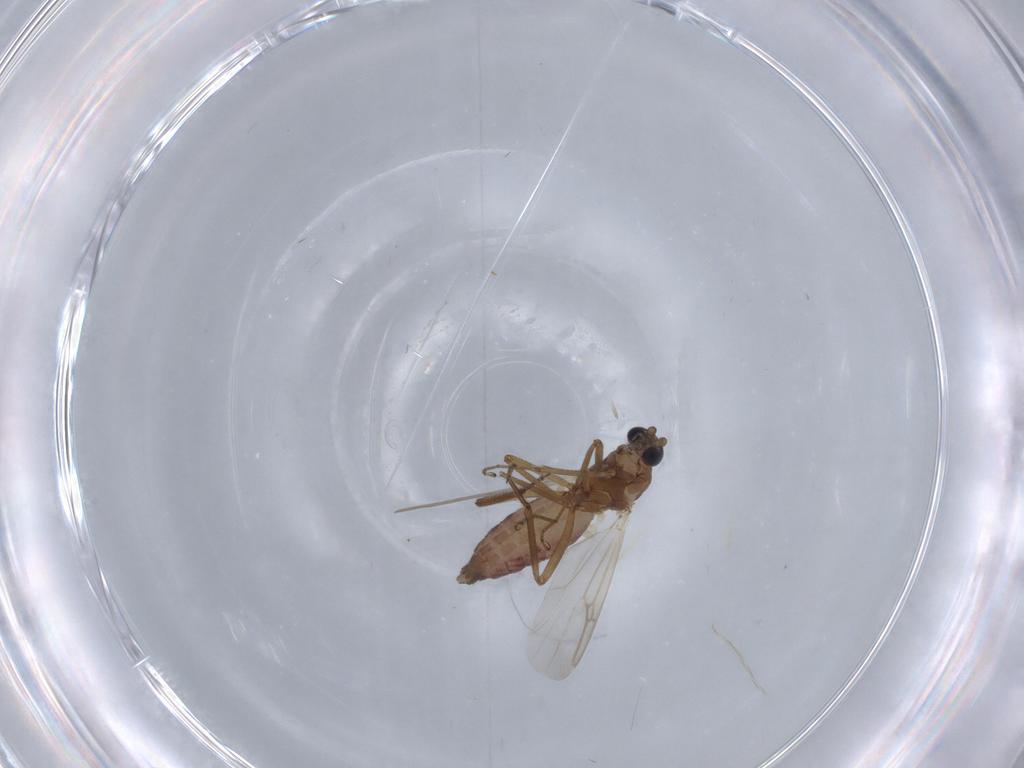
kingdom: Animalia
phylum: Arthropoda
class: Insecta
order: Diptera
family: Ceratopogonidae
